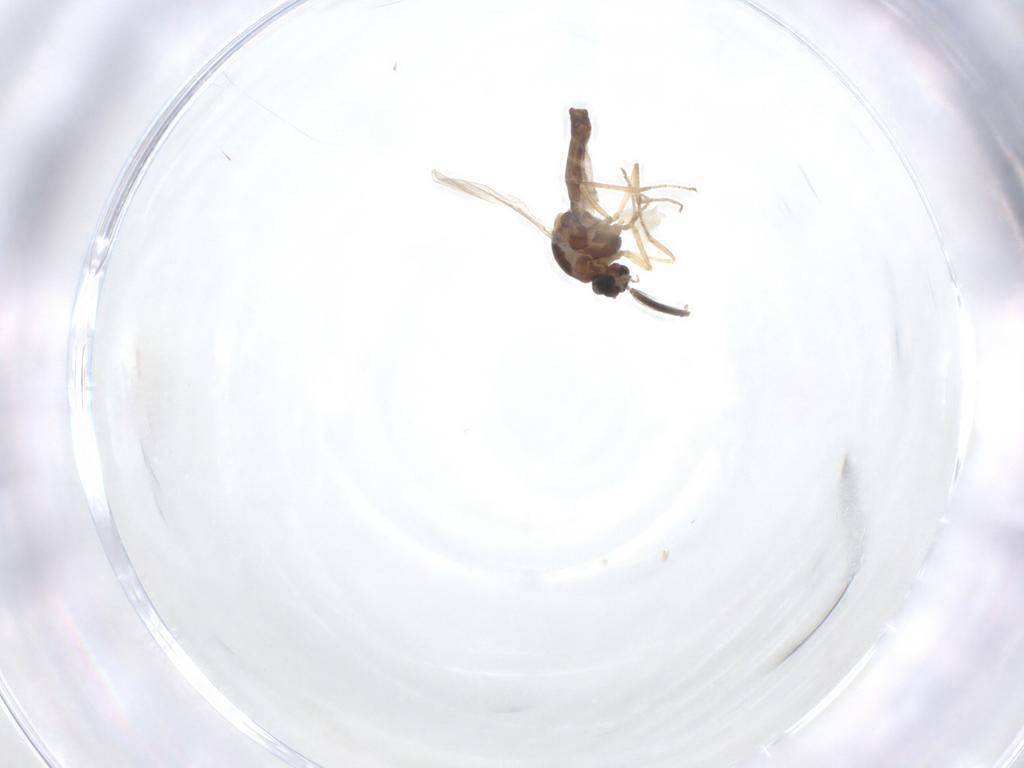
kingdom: Animalia
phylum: Arthropoda
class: Insecta
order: Diptera
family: Ceratopogonidae
